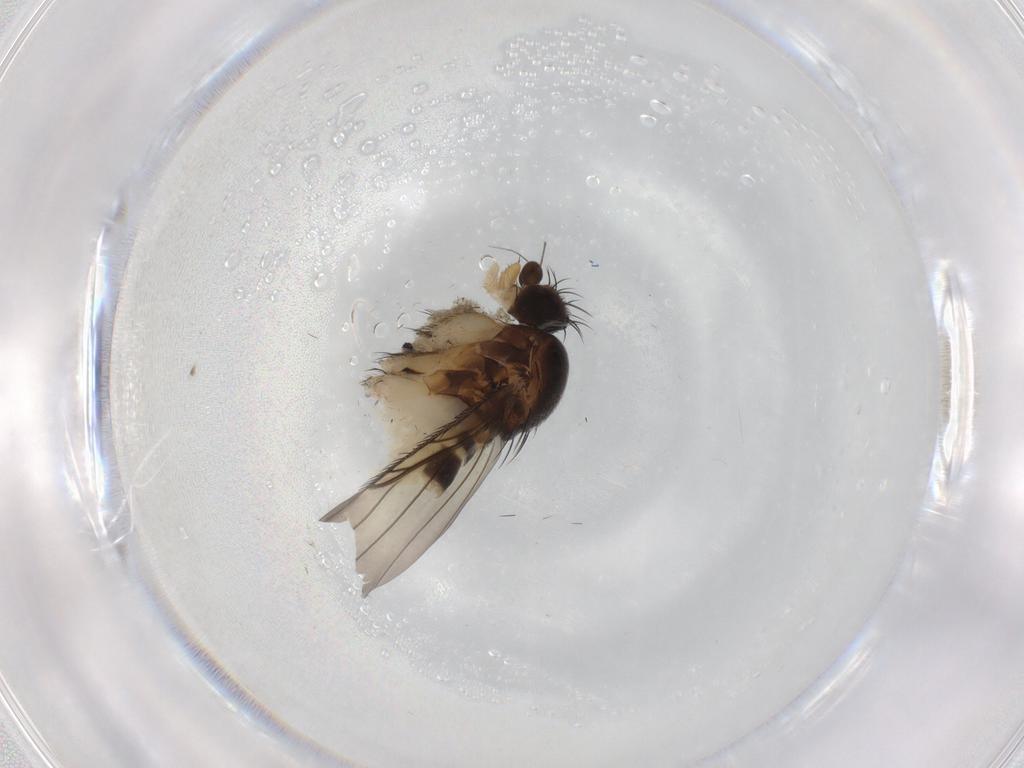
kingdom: Animalia
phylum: Arthropoda
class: Insecta
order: Diptera
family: Phoridae
